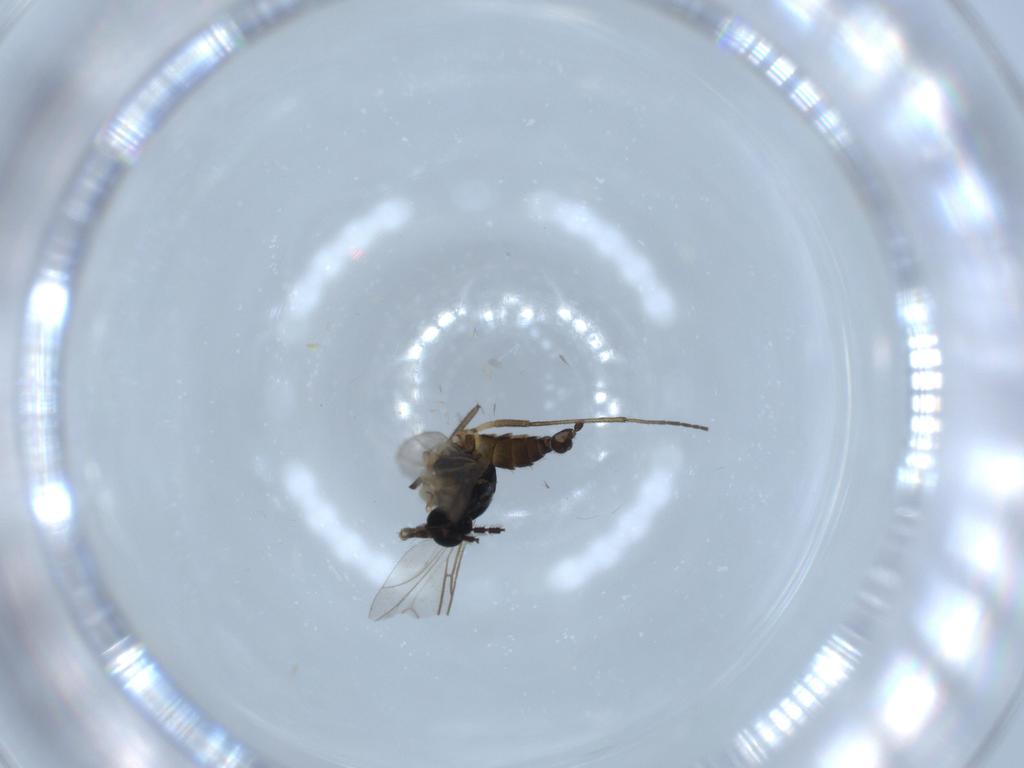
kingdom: Animalia
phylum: Arthropoda
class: Insecta
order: Diptera
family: Sciaridae
